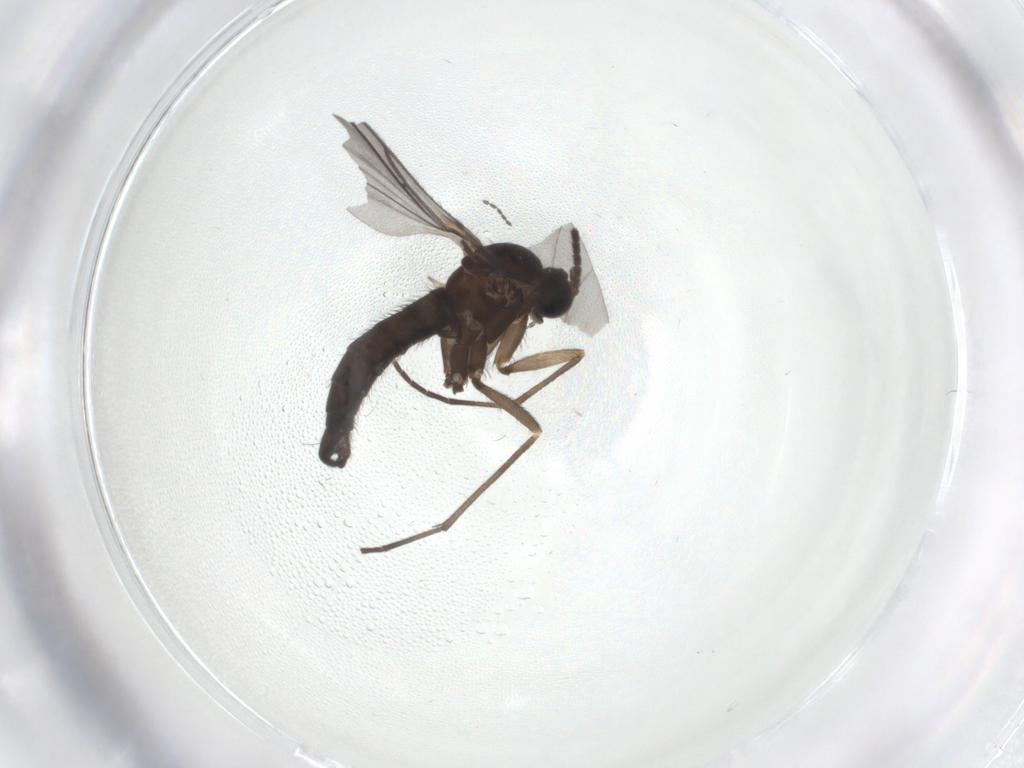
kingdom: Animalia
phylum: Arthropoda
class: Insecta
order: Diptera
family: Sciaridae
